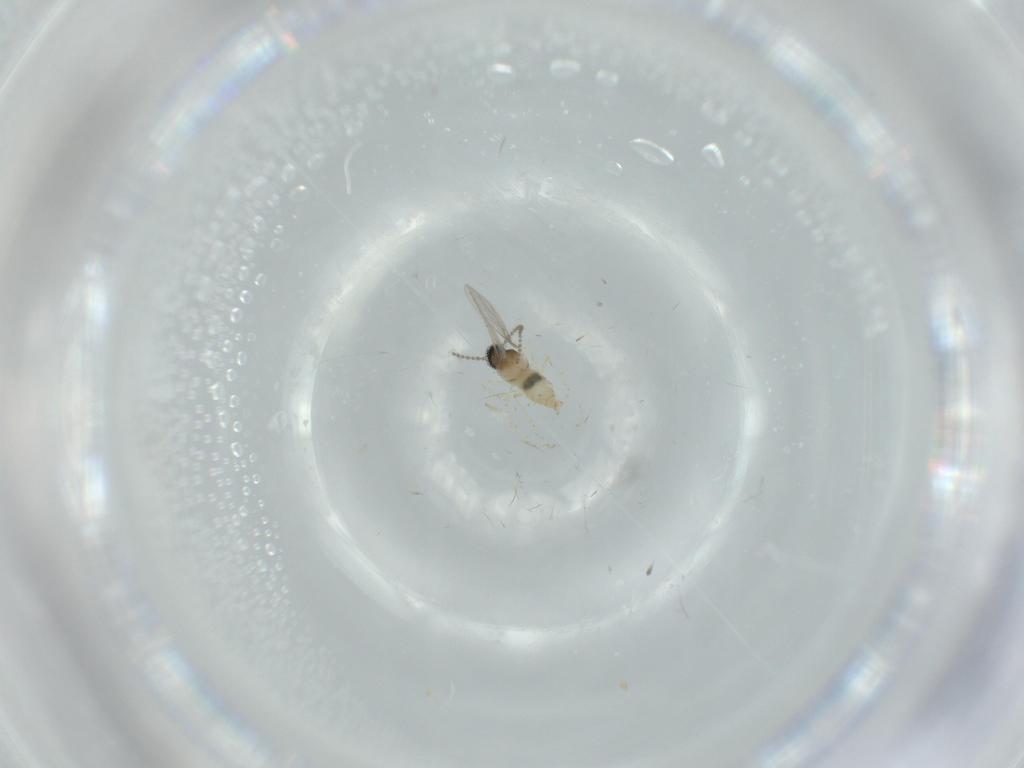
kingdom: Animalia
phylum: Arthropoda
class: Insecta
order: Diptera
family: Cecidomyiidae
